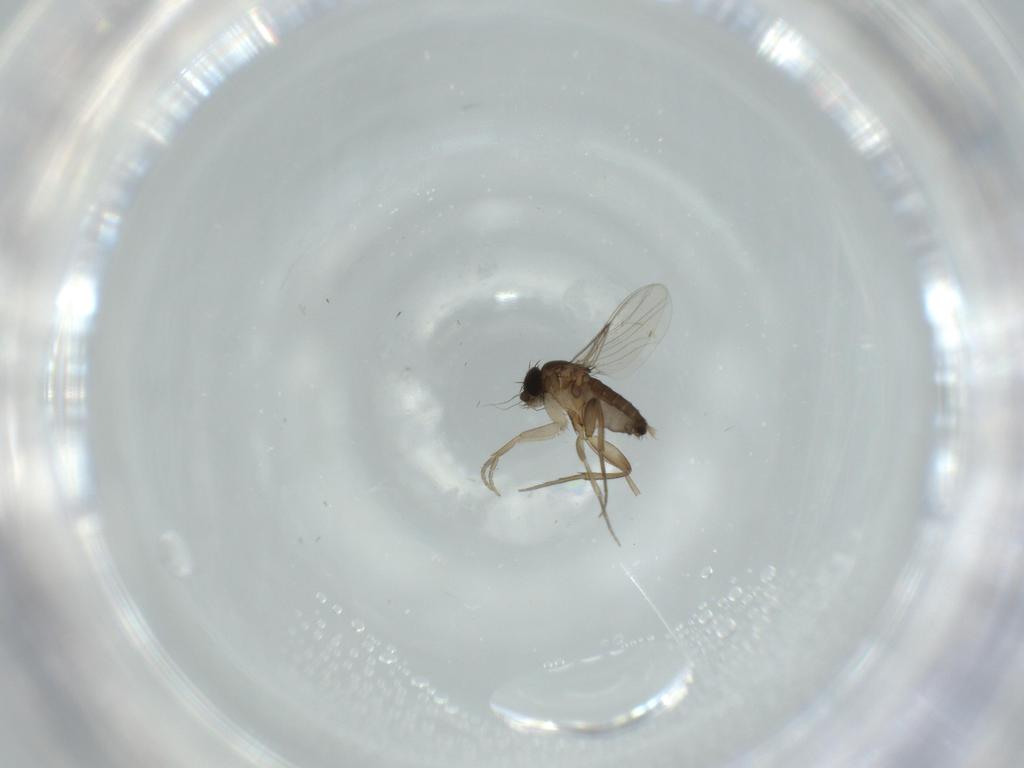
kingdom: Animalia
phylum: Arthropoda
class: Insecta
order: Diptera
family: Phoridae
